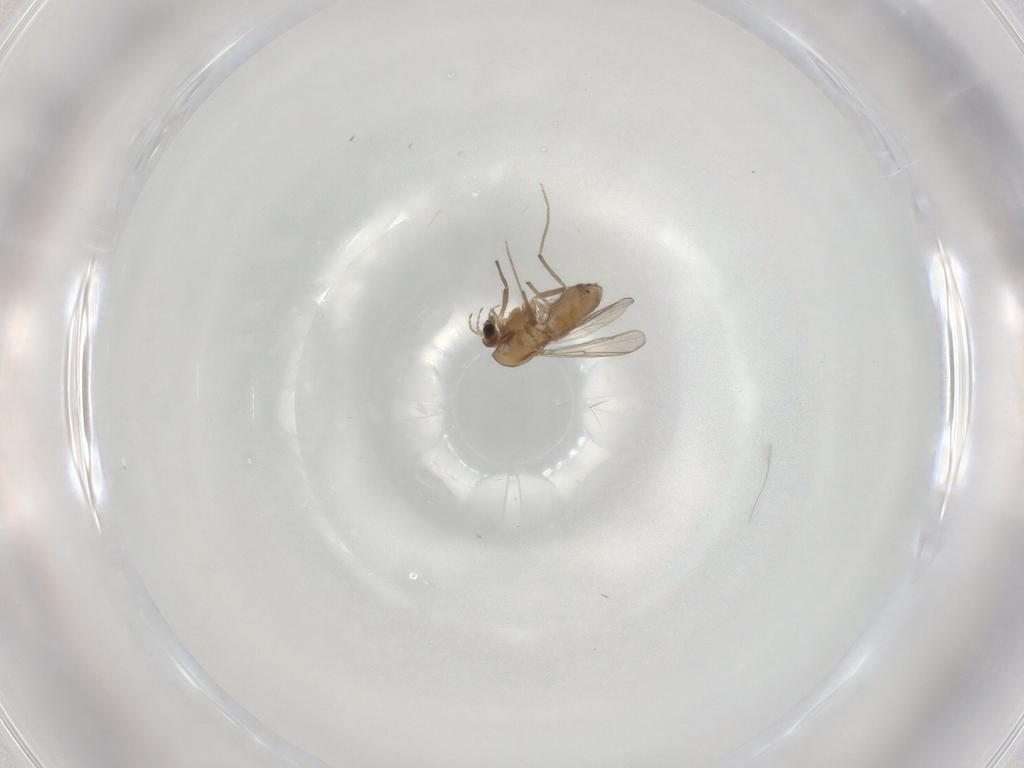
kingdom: Animalia
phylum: Arthropoda
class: Insecta
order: Diptera
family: Chironomidae
